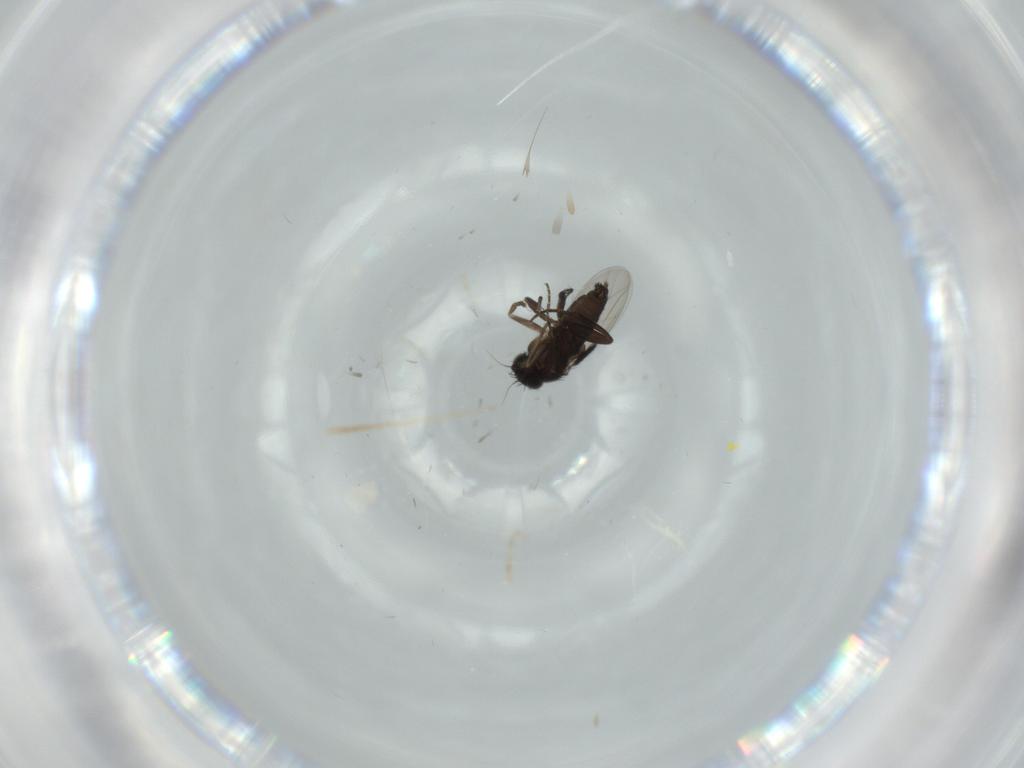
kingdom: Animalia
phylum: Arthropoda
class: Insecta
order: Diptera
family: Phoridae
